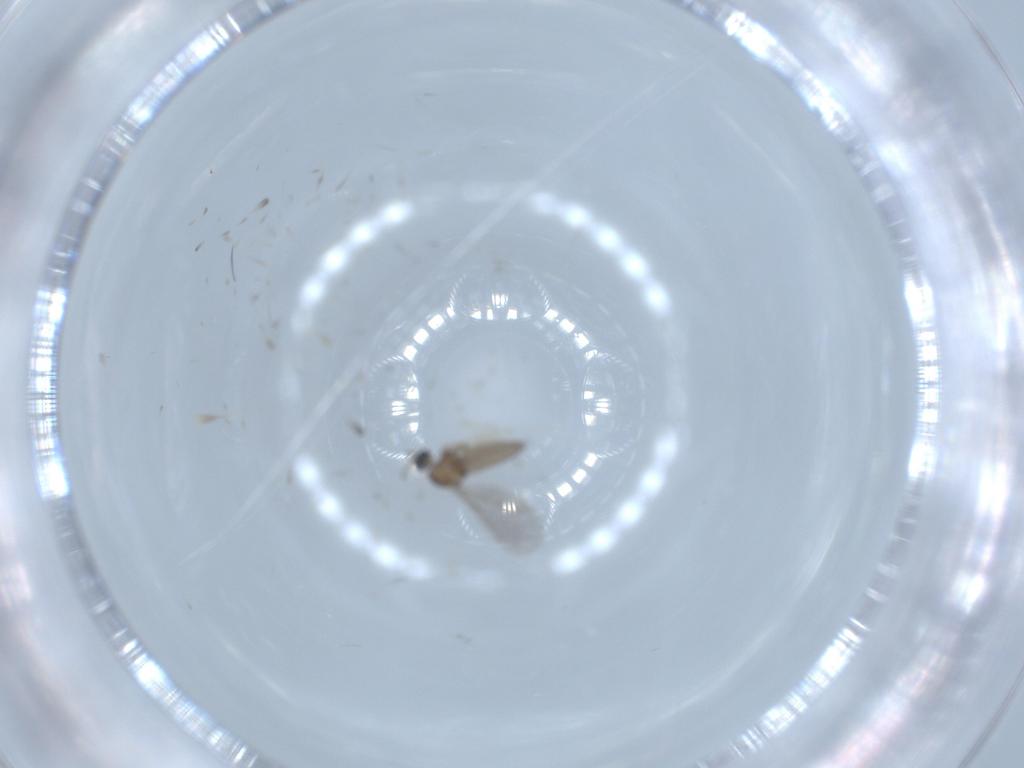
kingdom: Animalia
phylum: Arthropoda
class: Insecta
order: Diptera
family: Cecidomyiidae
